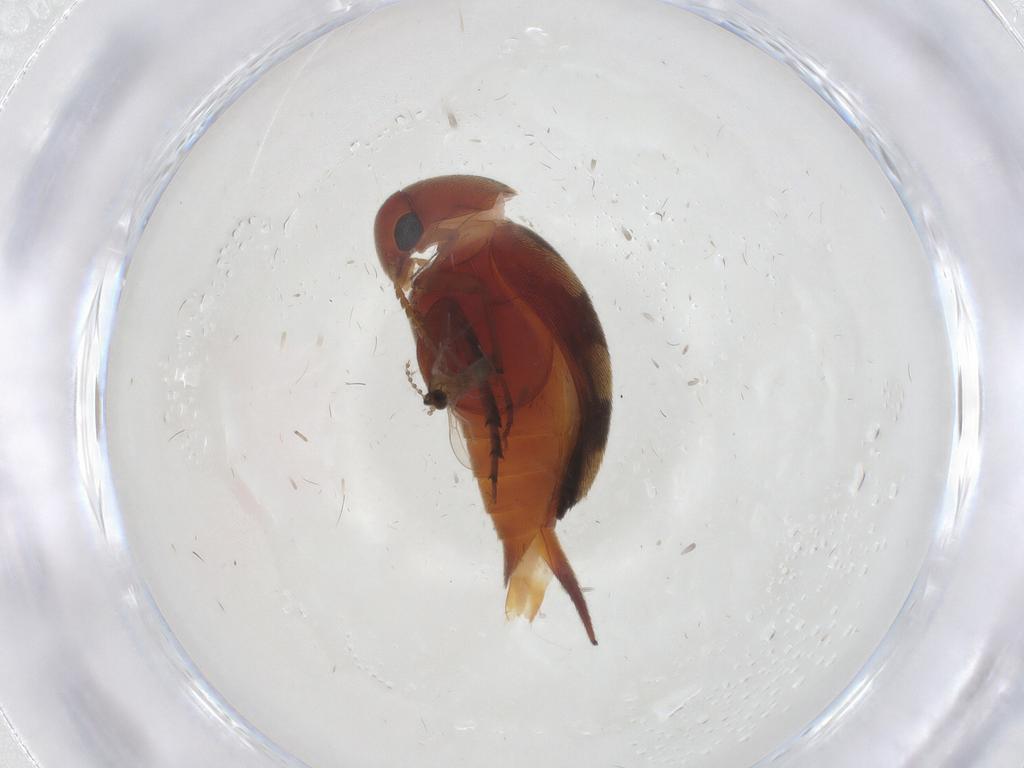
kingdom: Animalia
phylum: Arthropoda
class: Insecta
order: Coleoptera
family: Mordellidae
